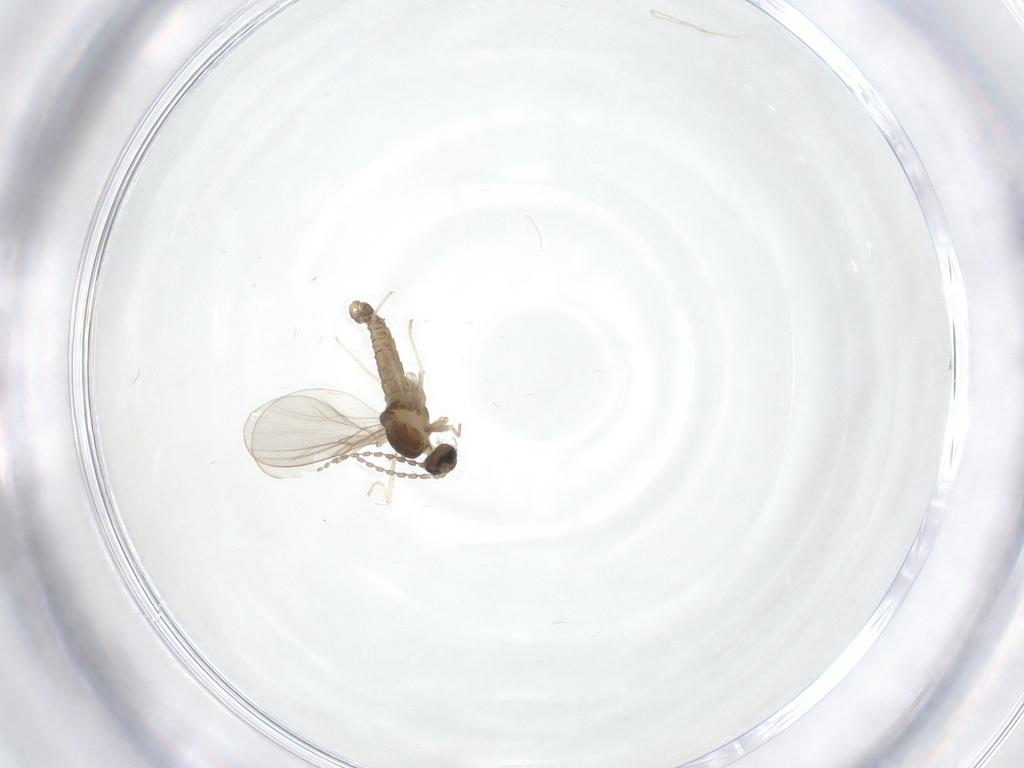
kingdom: Animalia
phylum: Arthropoda
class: Insecta
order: Diptera
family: Cecidomyiidae
